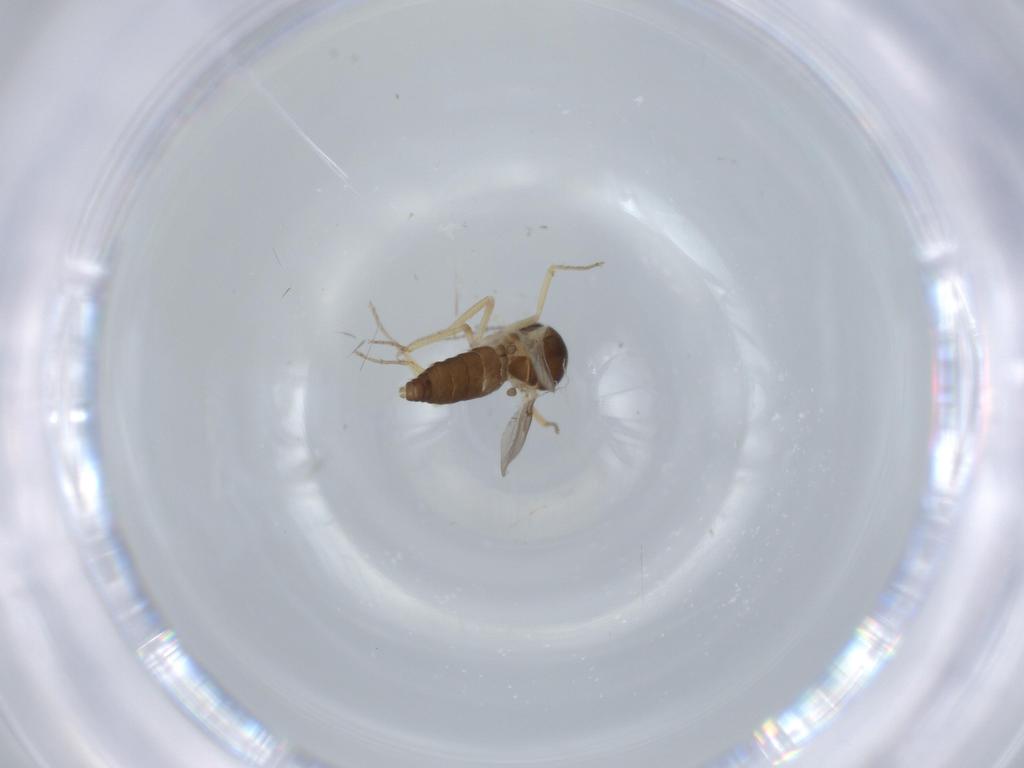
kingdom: Animalia
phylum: Arthropoda
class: Insecta
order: Diptera
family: Ceratopogonidae
